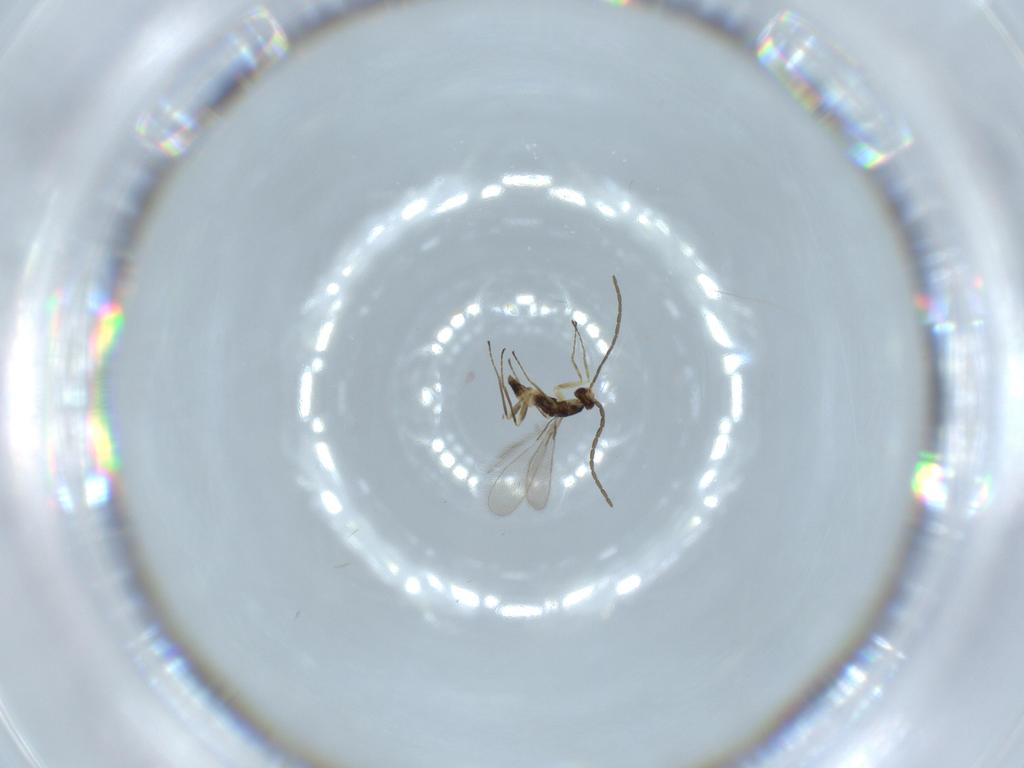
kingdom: Animalia
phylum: Arthropoda
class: Insecta
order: Hymenoptera
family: Mymaridae
